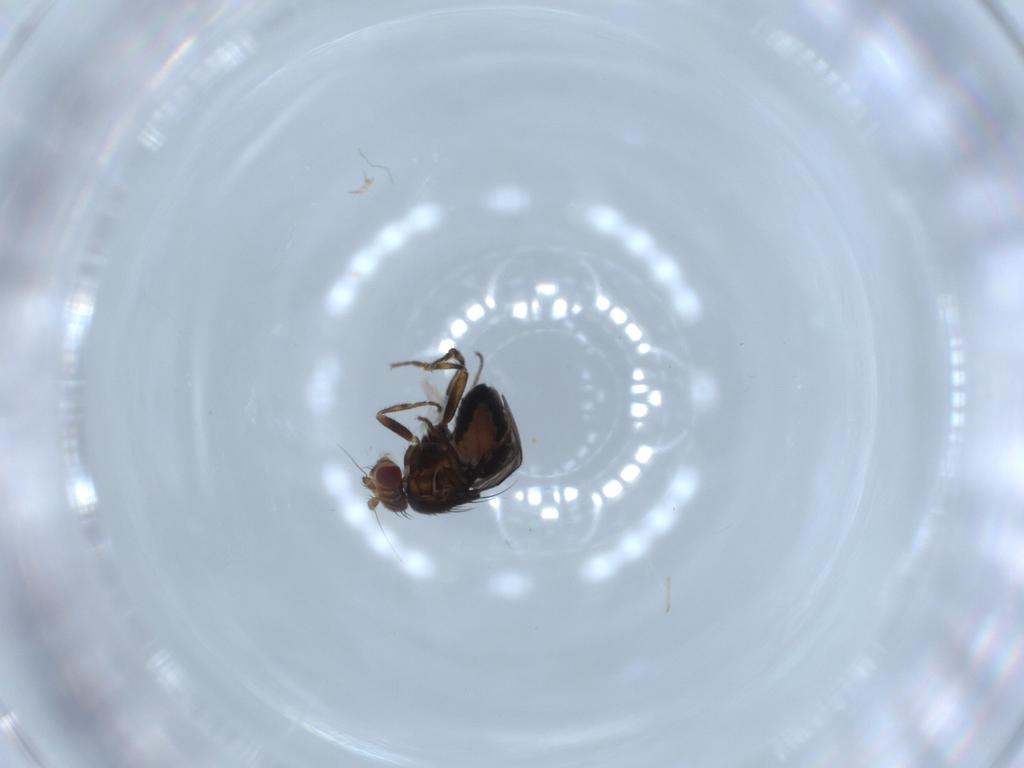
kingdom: Animalia
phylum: Arthropoda
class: Insecta
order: Diptera
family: Sphaeroceridae
